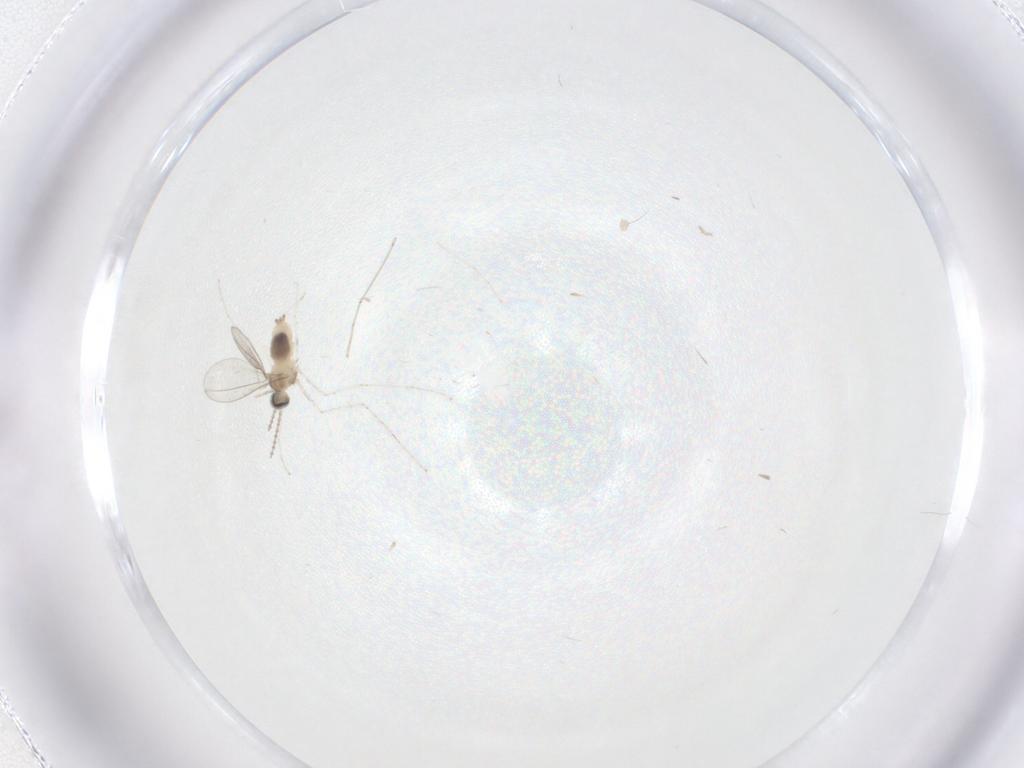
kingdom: Animalia
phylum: Arthropoda
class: Insecta
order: Diptera
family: Cecidomyiidae
